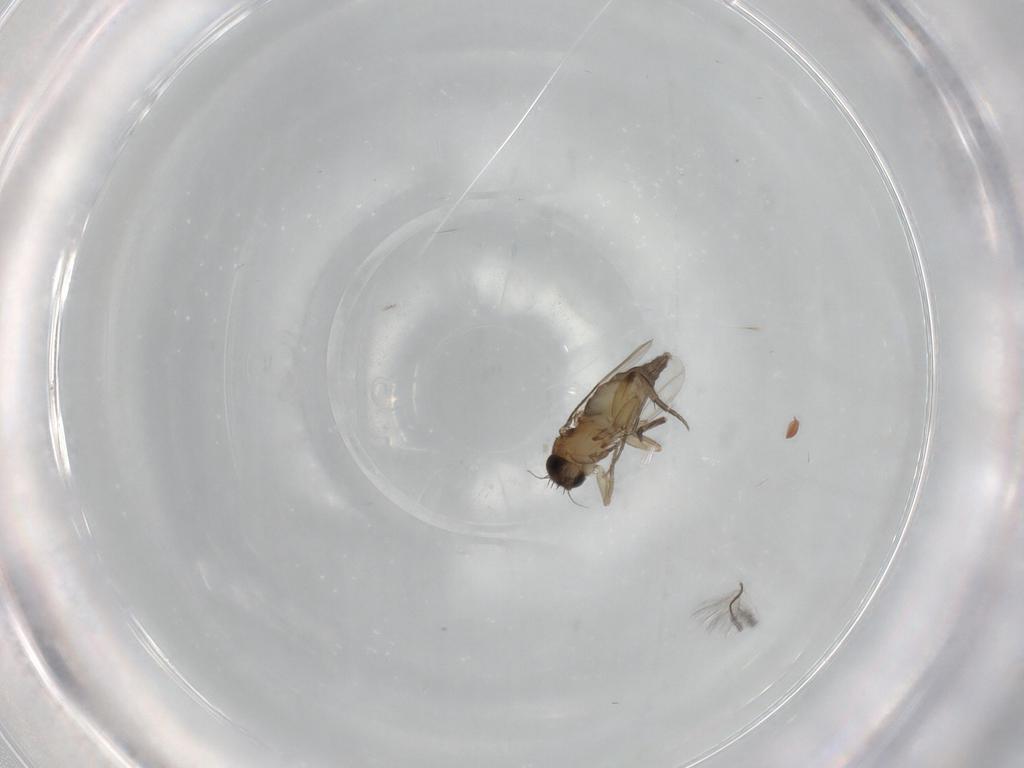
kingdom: Animalia
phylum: Arthropoda
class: Insecta
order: Diptera
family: Phoridae
